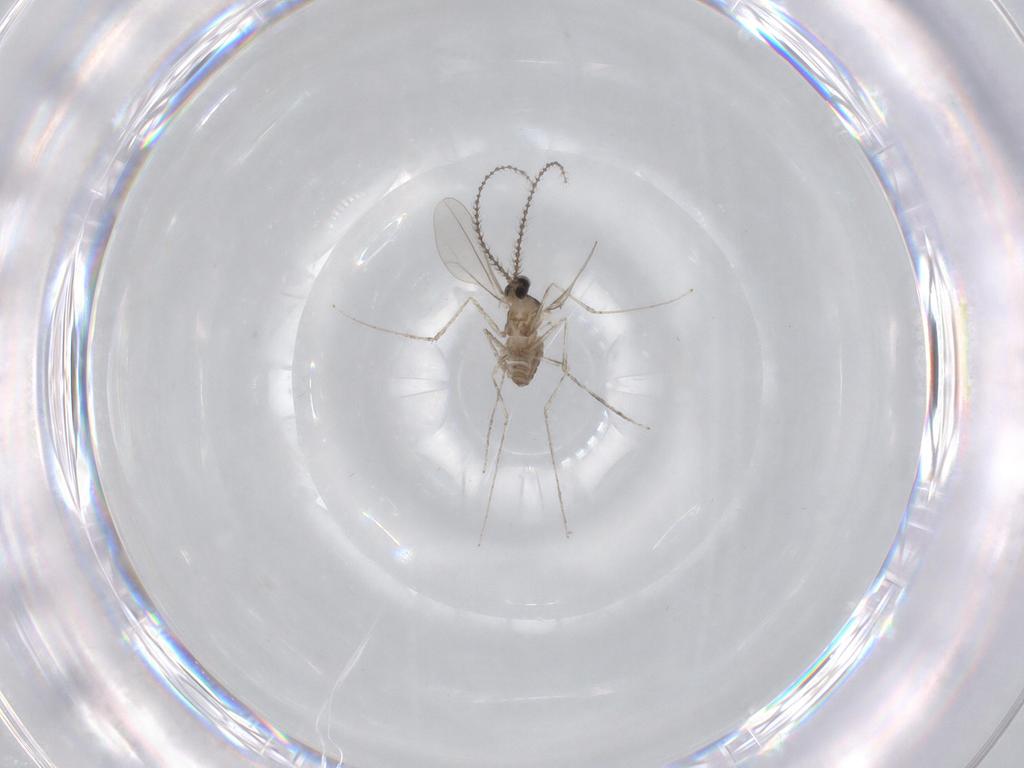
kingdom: Animalia
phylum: Arthropoda
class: Insecta
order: Diptera
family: Cecidomyiidae
